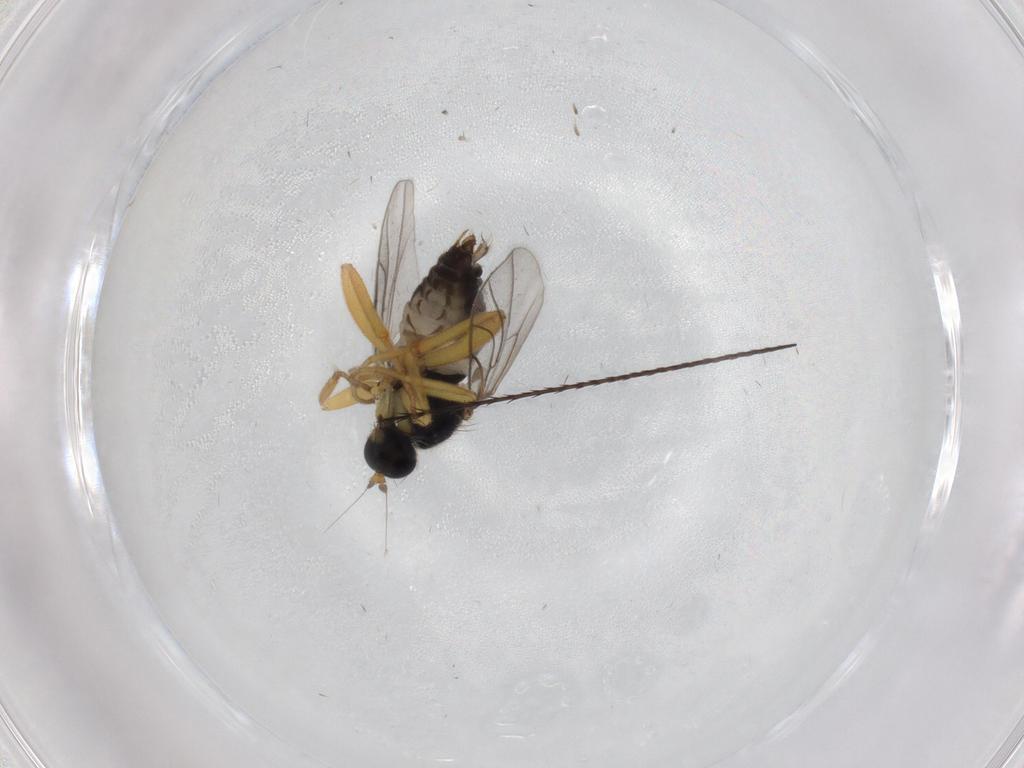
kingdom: Animalia
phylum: Arthropoda
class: Insecta
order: Diptera
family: Hybotidae
